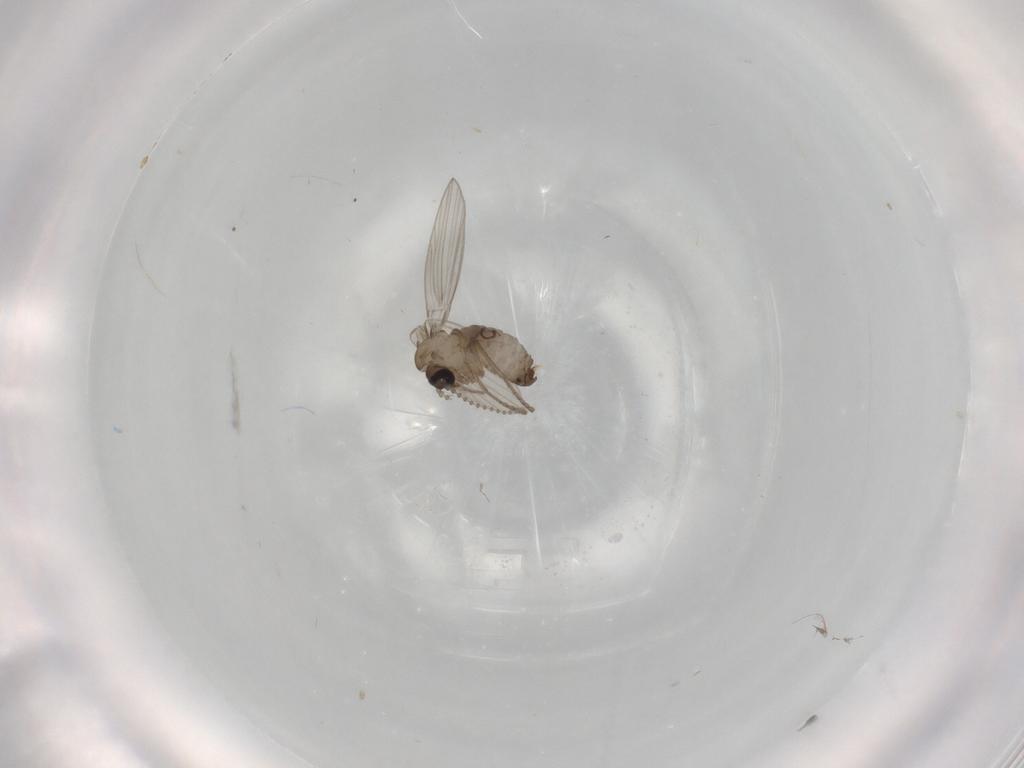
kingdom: Animalia
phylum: Arthropoda
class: Insecta
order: Diptera
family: Psychodidae
